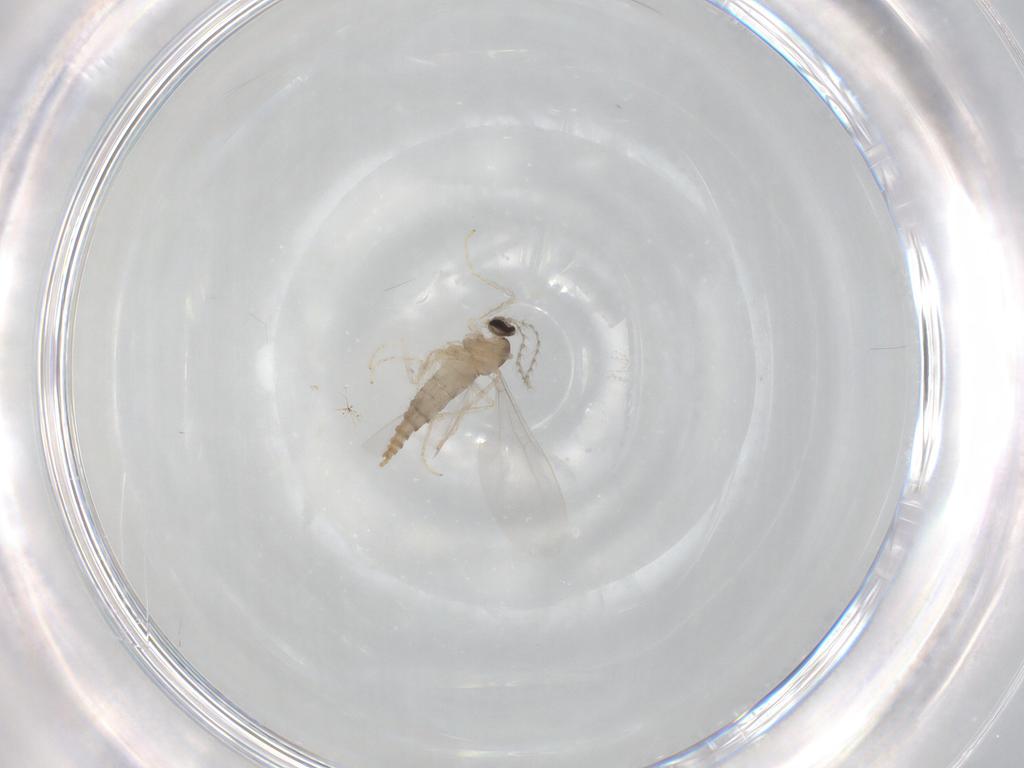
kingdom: Animalia
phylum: Arthropoda
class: Insecta
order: Diptera
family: Cecidomyiidae
